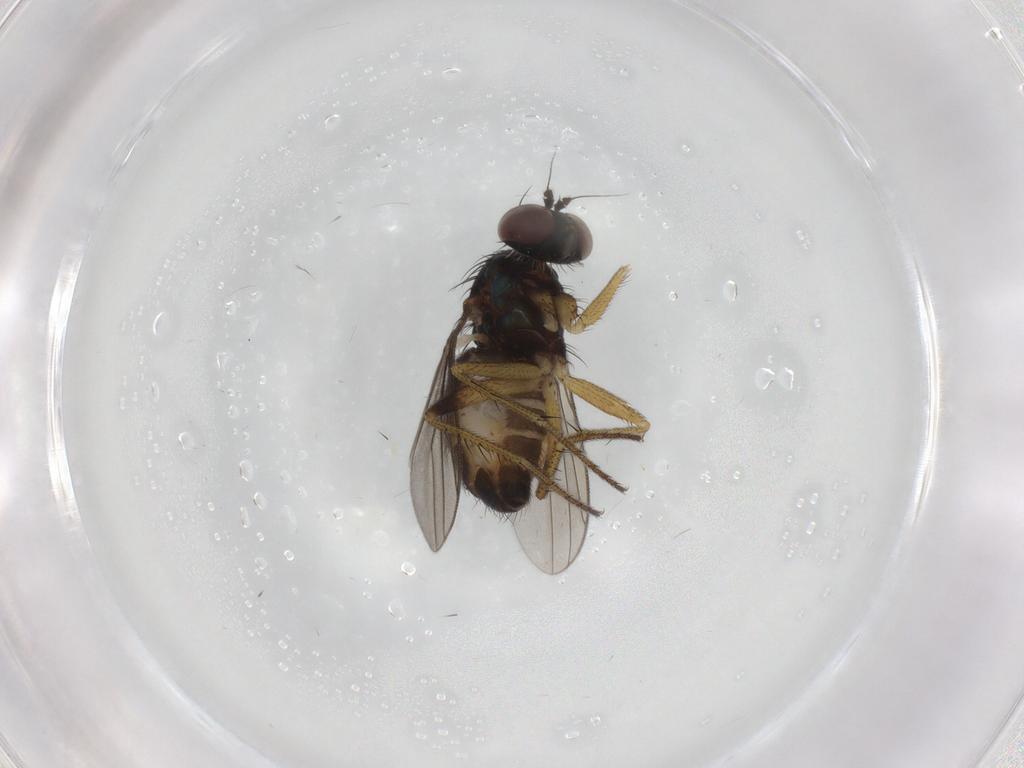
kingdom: Animalia
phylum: Arthropoda
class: Insecta
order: Diptera
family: Dolichopodidae
